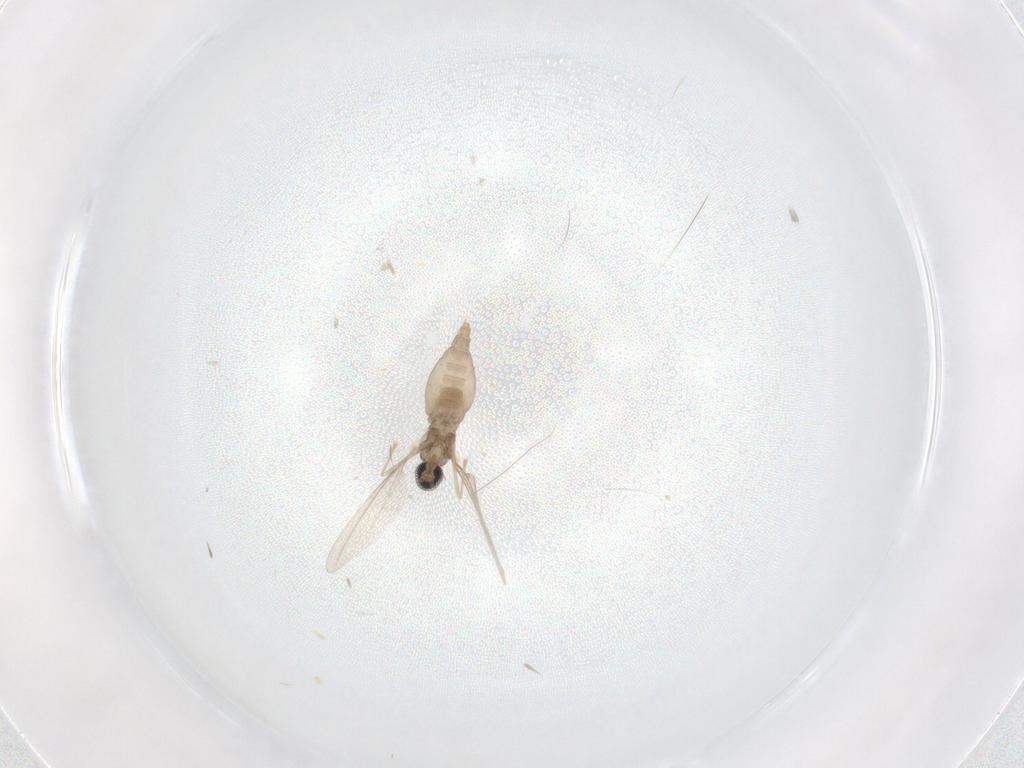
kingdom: Animalia
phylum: Arthropoda
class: Insecta
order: Diptera
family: Cecidomyiidae
